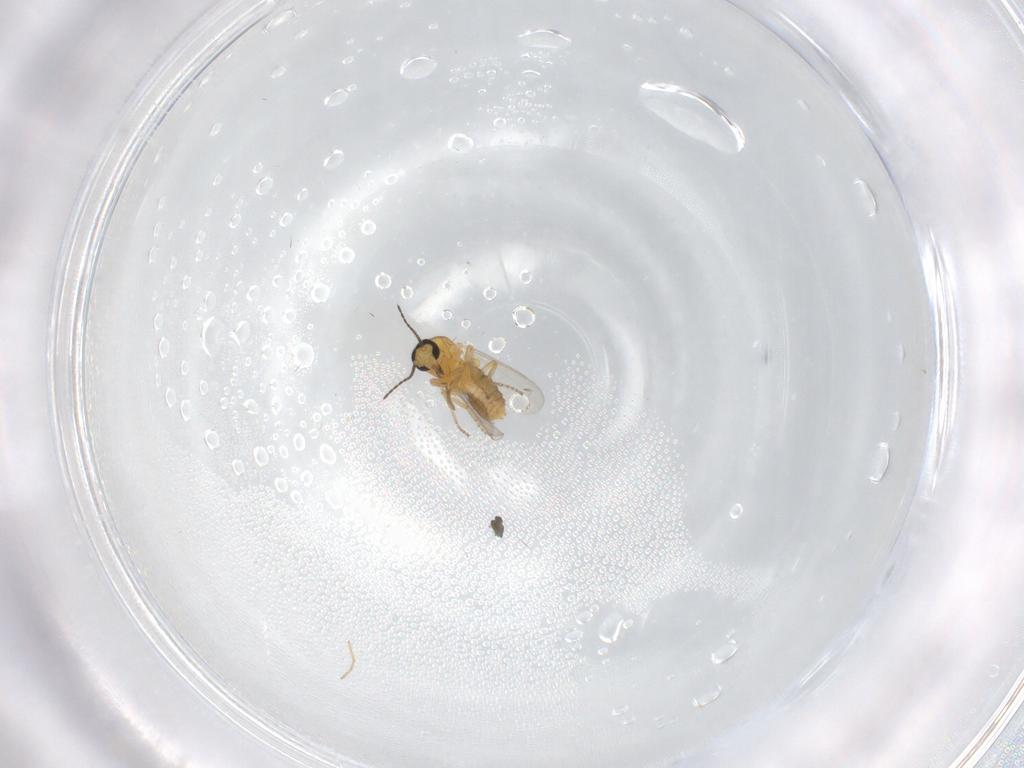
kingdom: Animalia
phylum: Arthropoda
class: Insecta
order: Diptera
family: Ceratopogonidae
